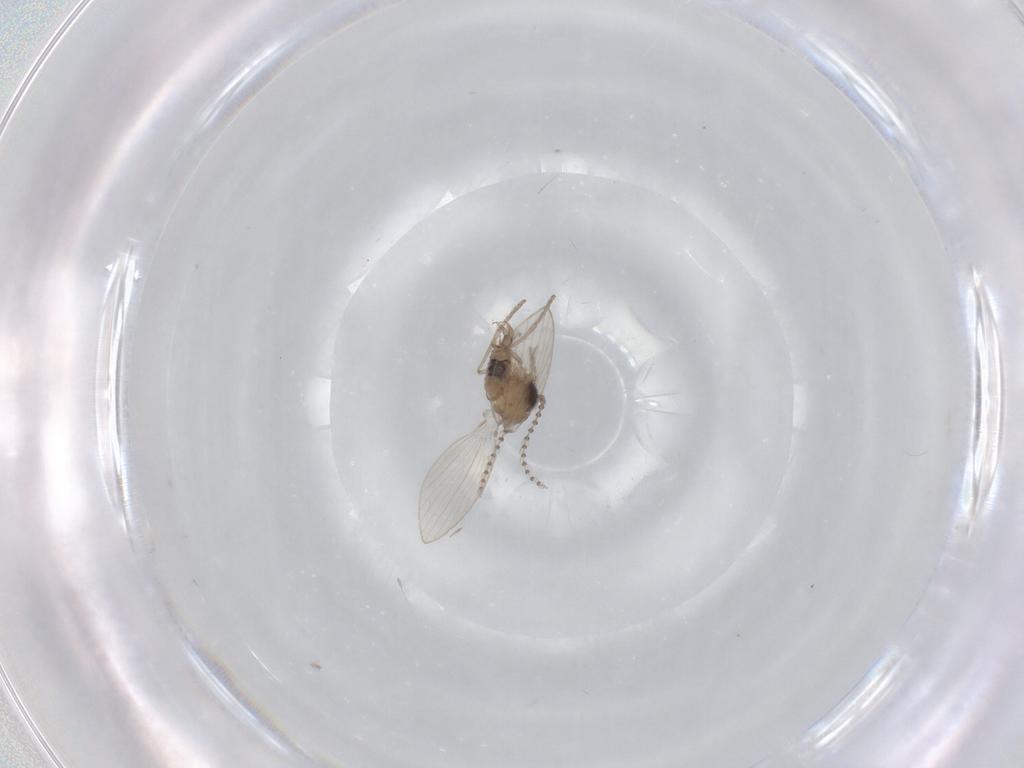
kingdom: Animalia
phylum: Arthropoda
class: Insecta
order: Diptera
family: Psychodidae
